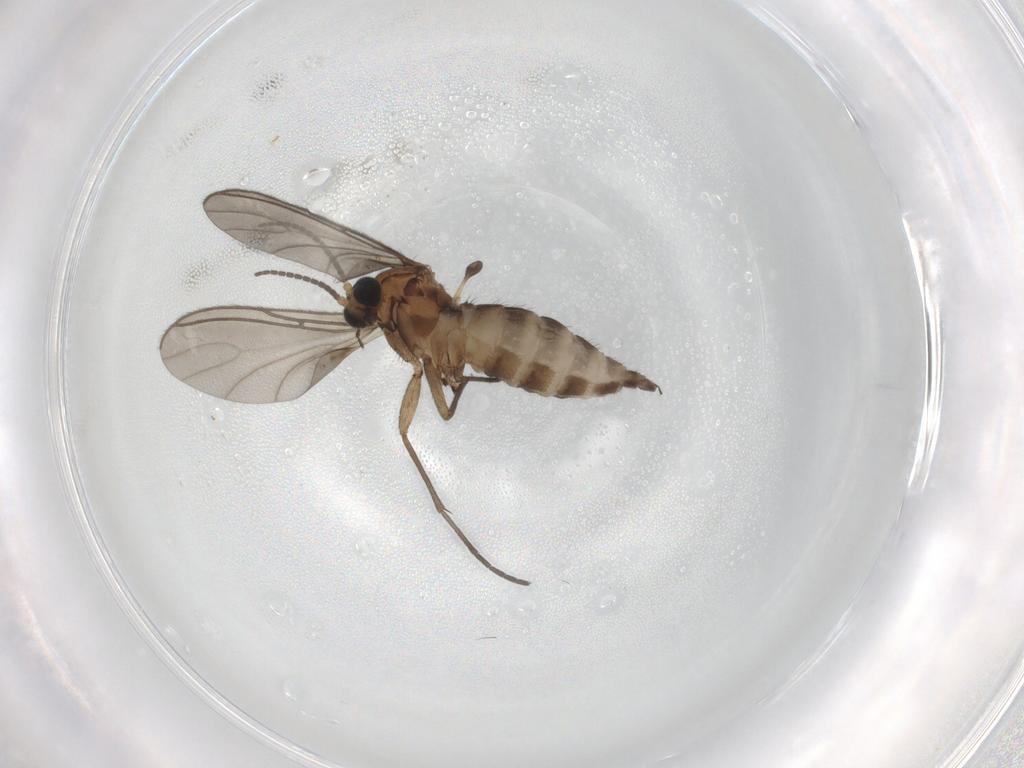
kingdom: Animalia
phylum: Arthropoda
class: Insecta
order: Diptera
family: Sciaridae
